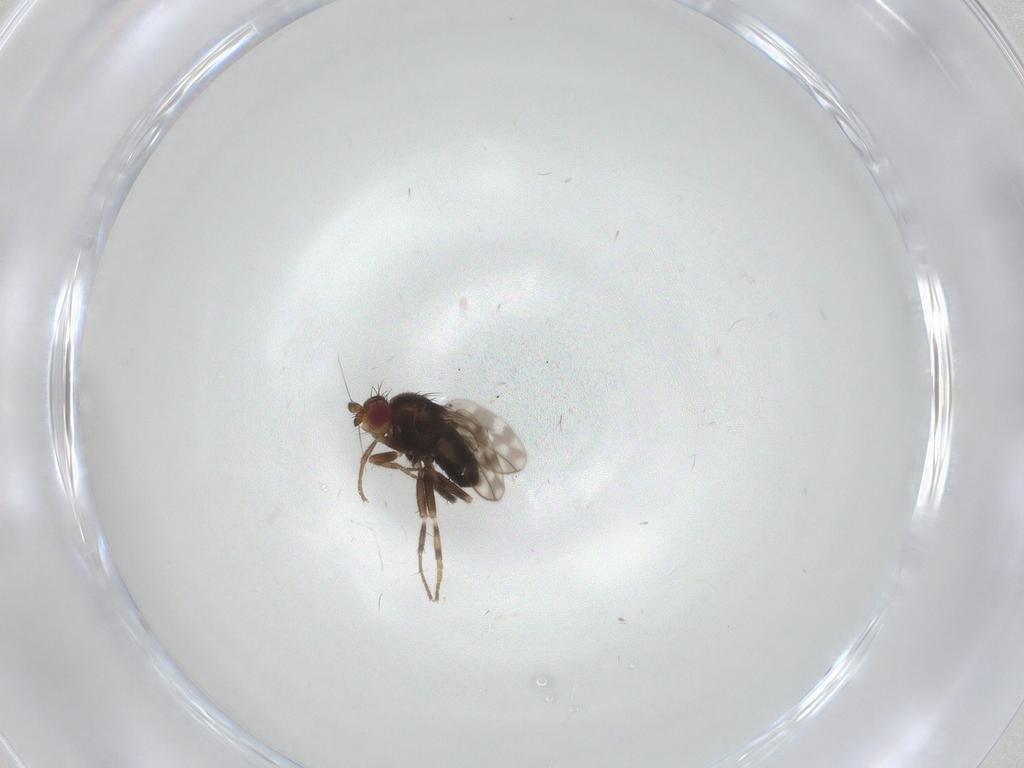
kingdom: Animalia
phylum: Arthropoda
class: Insecta
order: Diptera
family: Sphaeroceridae
